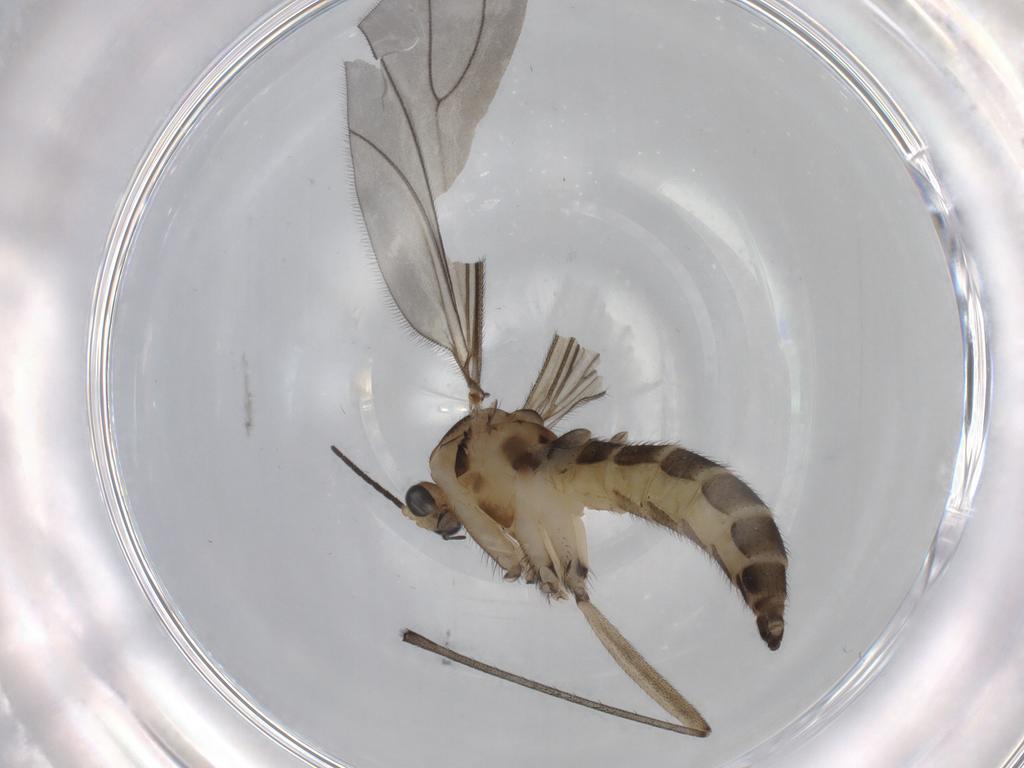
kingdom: Animalia
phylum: Arthropoda
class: Insecta
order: Diptera
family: Sciaridae
